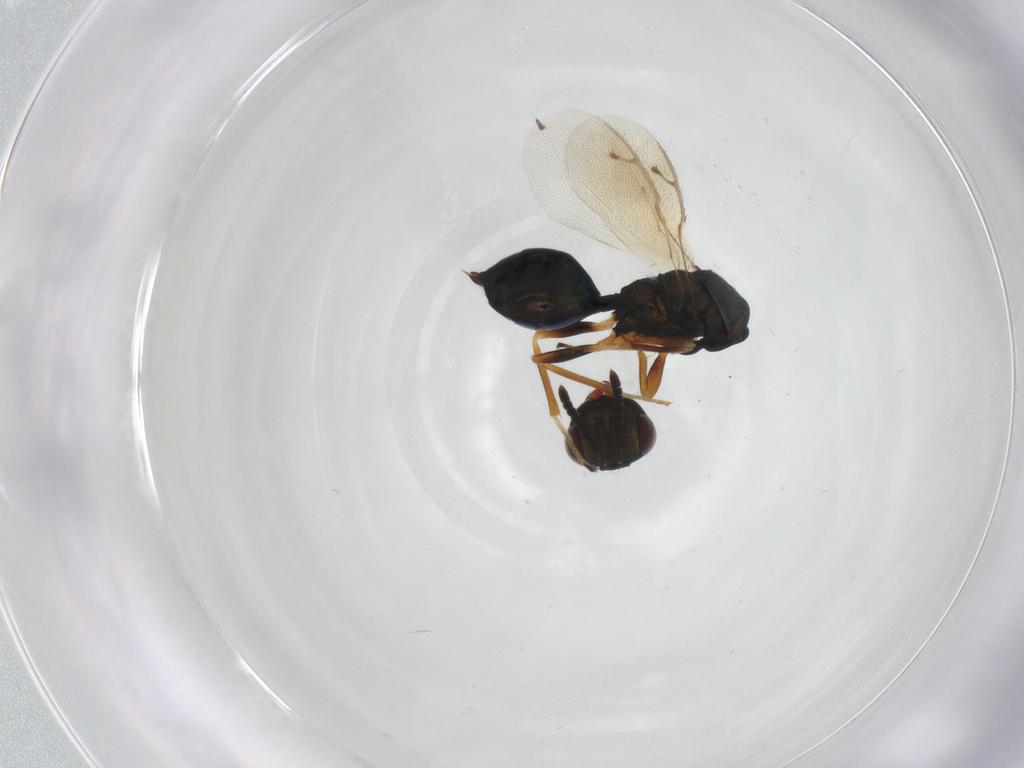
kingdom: Animalia
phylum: Arthropoda
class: Insecta
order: Hymenoptera
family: Pteromalidae
